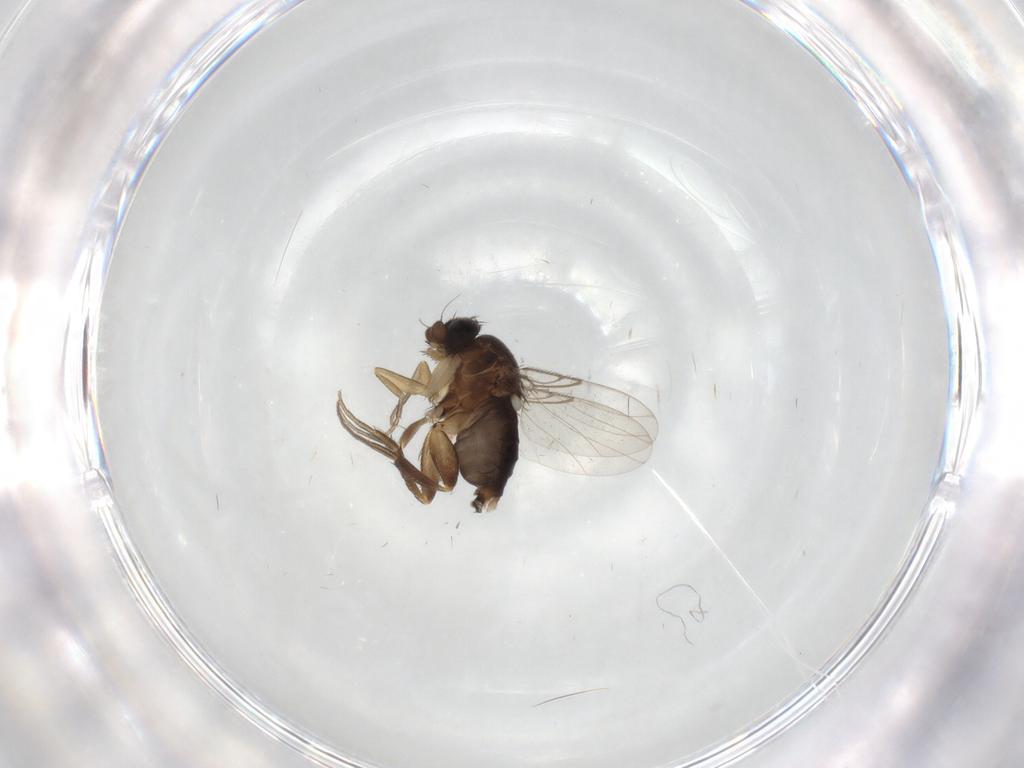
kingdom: Animalia
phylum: Arthropoda
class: Insecta
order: Diptera
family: Phoridae
